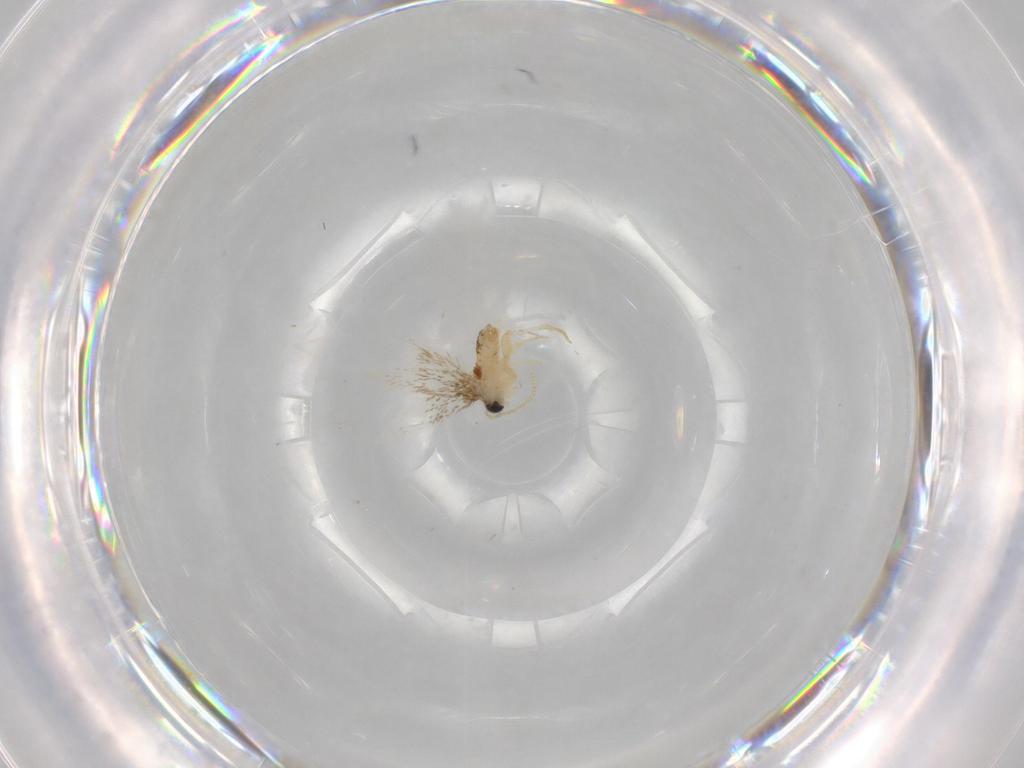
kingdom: Animalia
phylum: Arthropoda
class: Insecta
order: Lepidoptera
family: Nepticulidae
